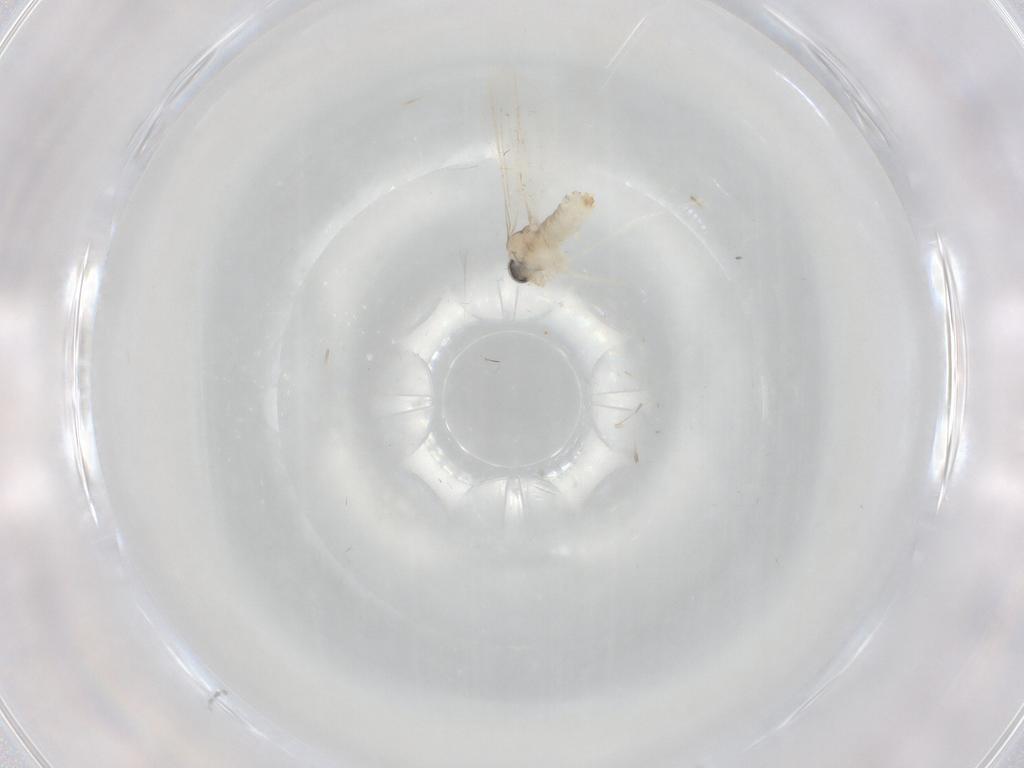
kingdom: Animalia
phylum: Arthropoda
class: Insecta
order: Diptera
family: Cecidomyiidae
